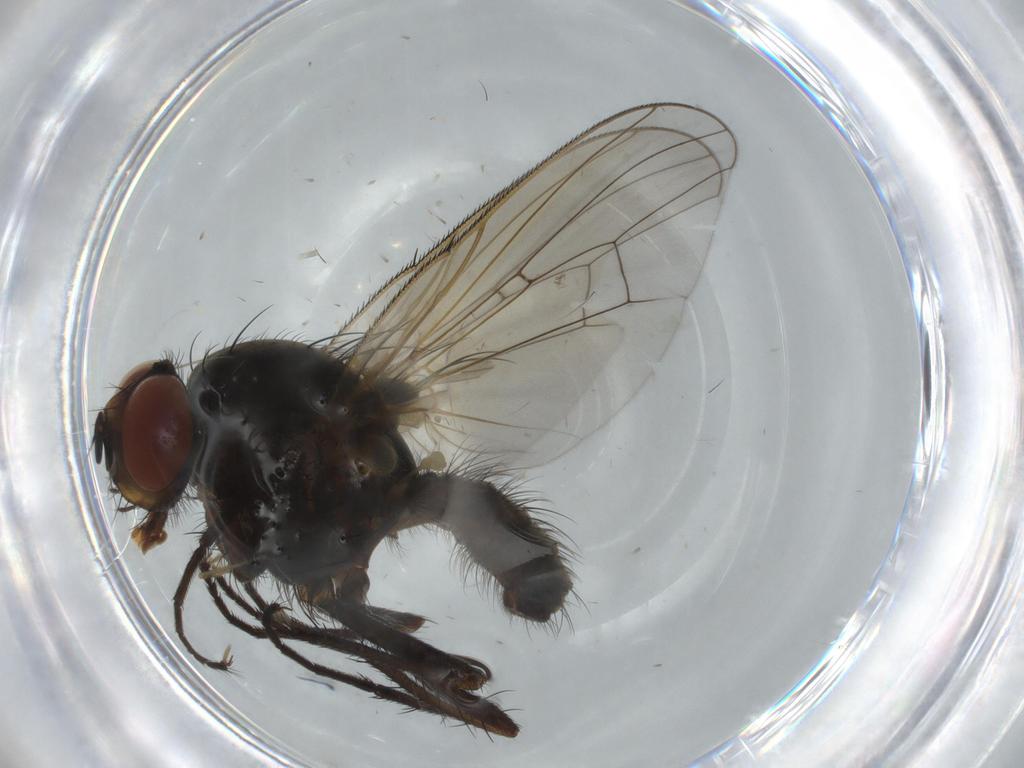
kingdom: Animalia
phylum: Arthropoda
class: Insecta
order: Diptera
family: Anthomyiidae
